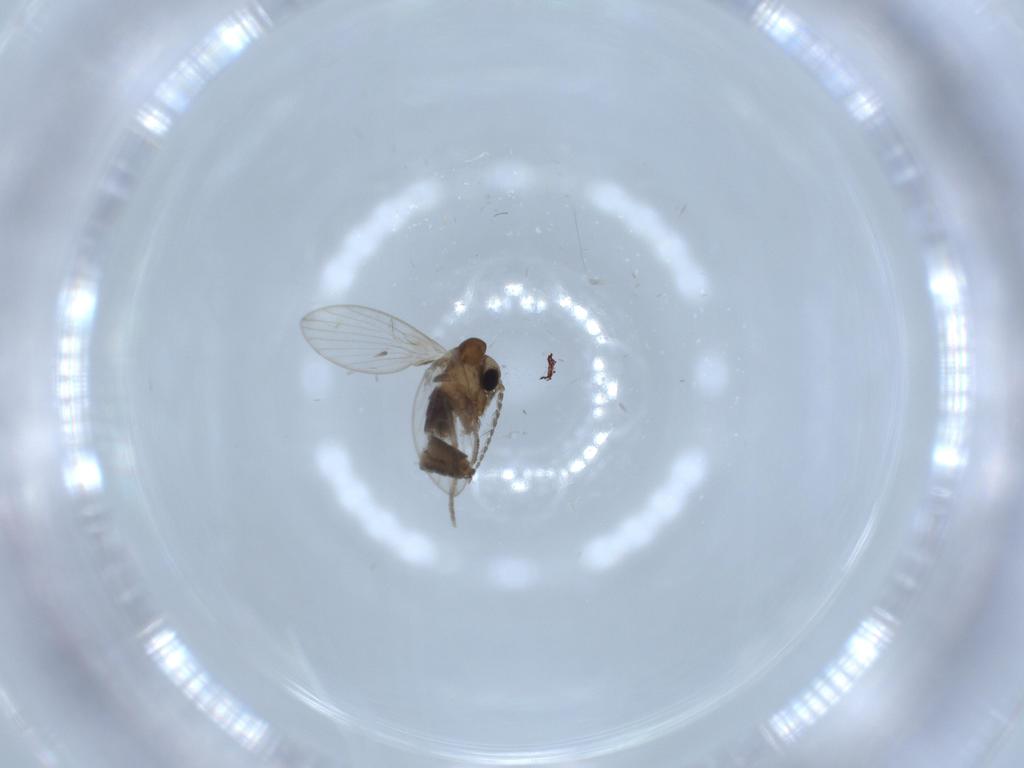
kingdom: Animalia
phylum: Arthropoda
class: Insecta
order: Diptera
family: Psychodidae
